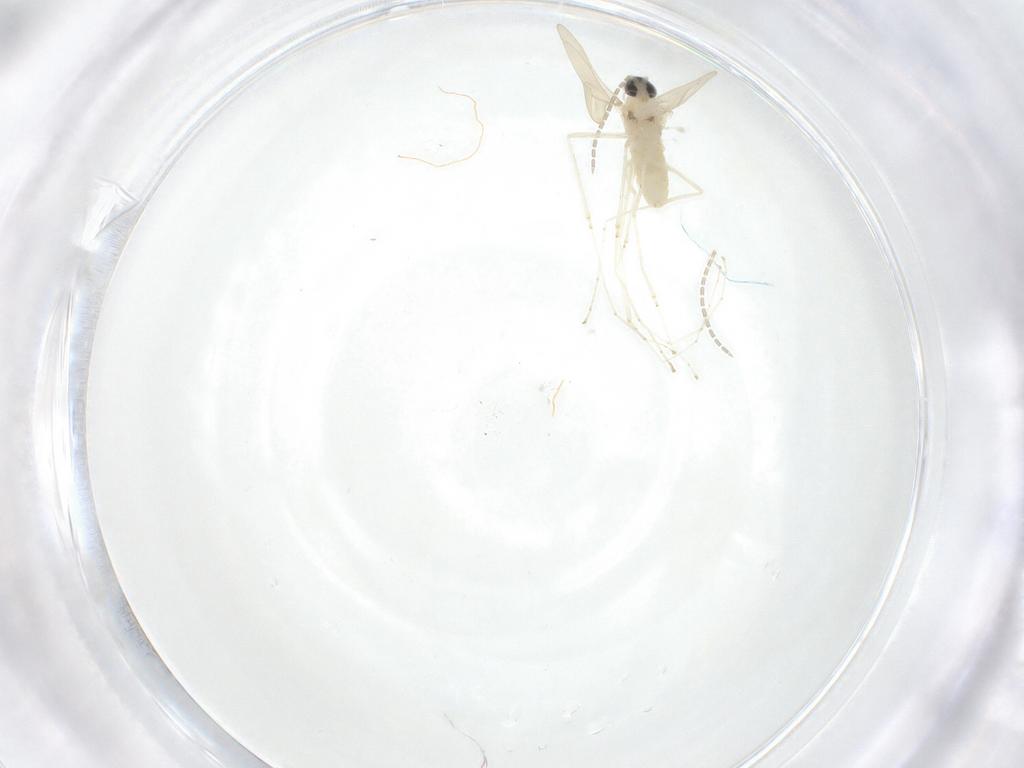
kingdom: Animalia
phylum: Arthropoda
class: Insecta
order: Diptera
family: Cecidomyiidae
